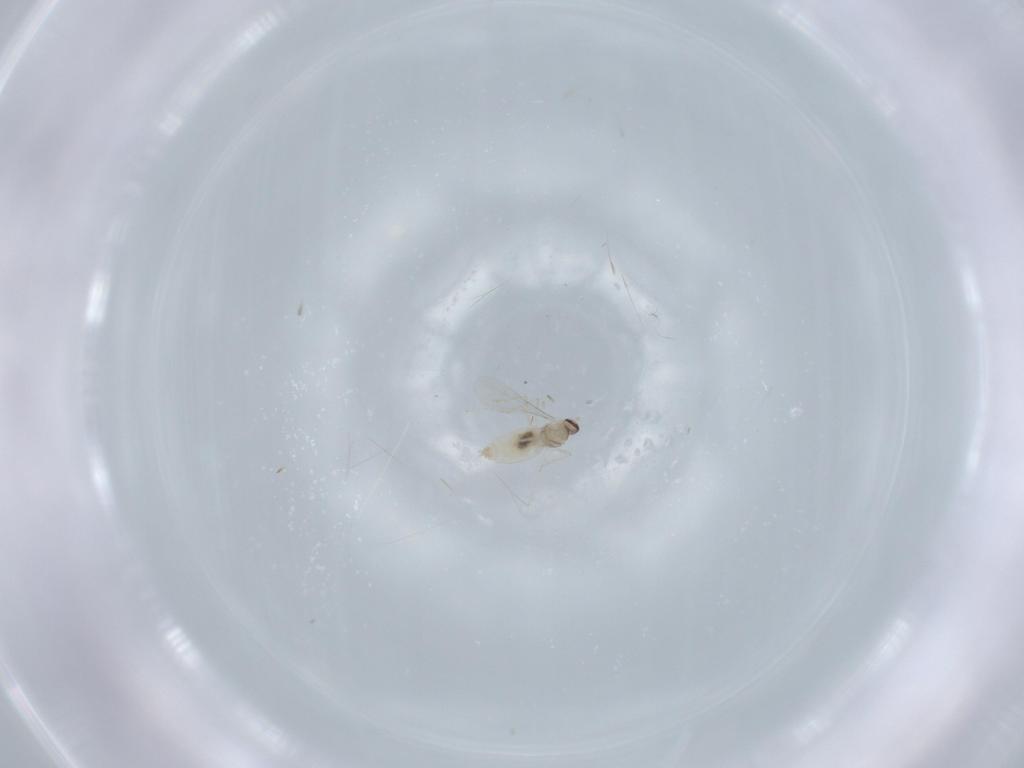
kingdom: Animalia
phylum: Arthropoda
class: Insecta
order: Diptera
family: Cecidomyiidae
